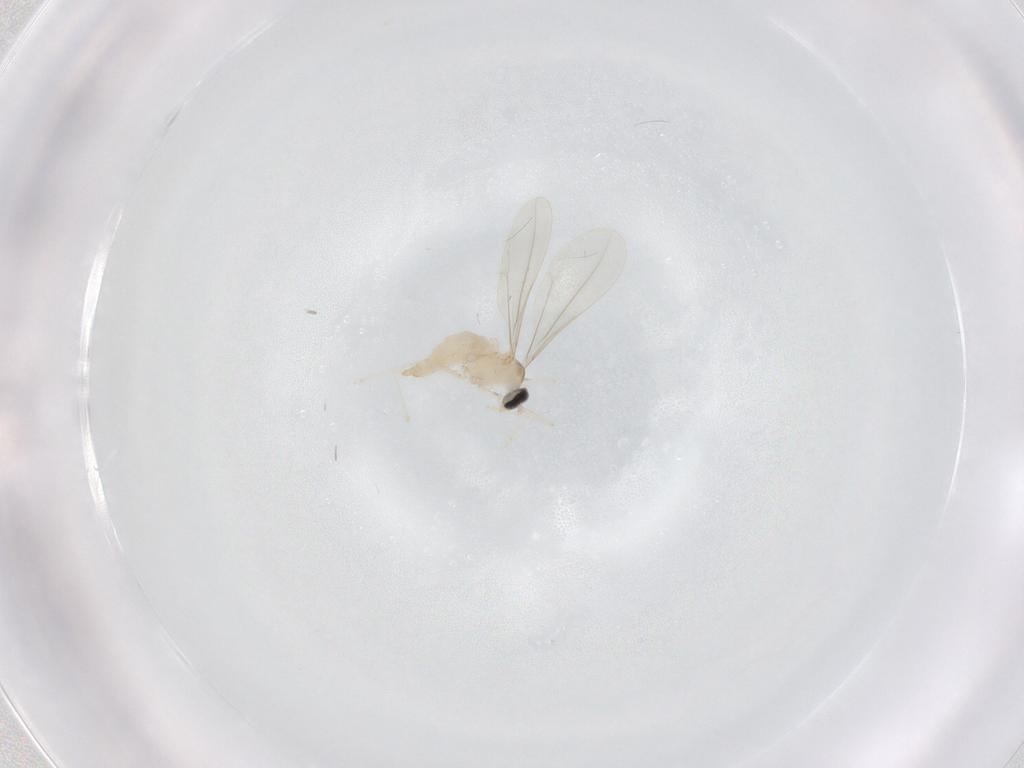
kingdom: Animalia
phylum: Arthropoda
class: Insecta
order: Diptera
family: Cecidomyiidae
